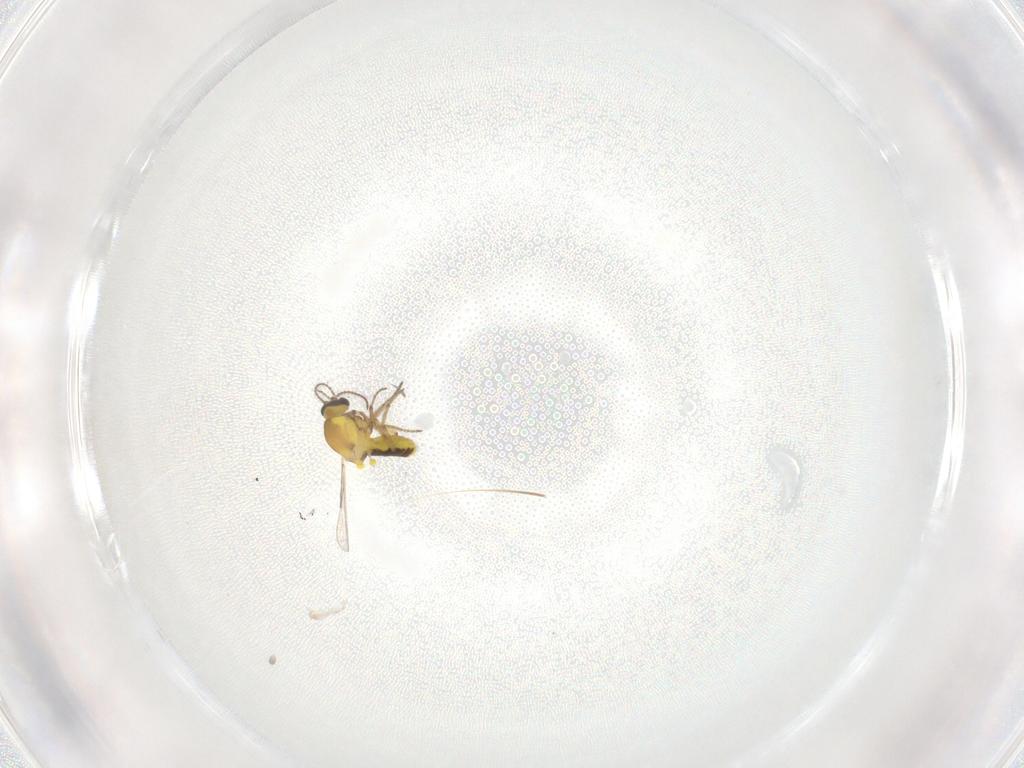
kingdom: Animalia
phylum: Arthropoda
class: Insecta
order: Diptera
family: Ceratopogonidae
